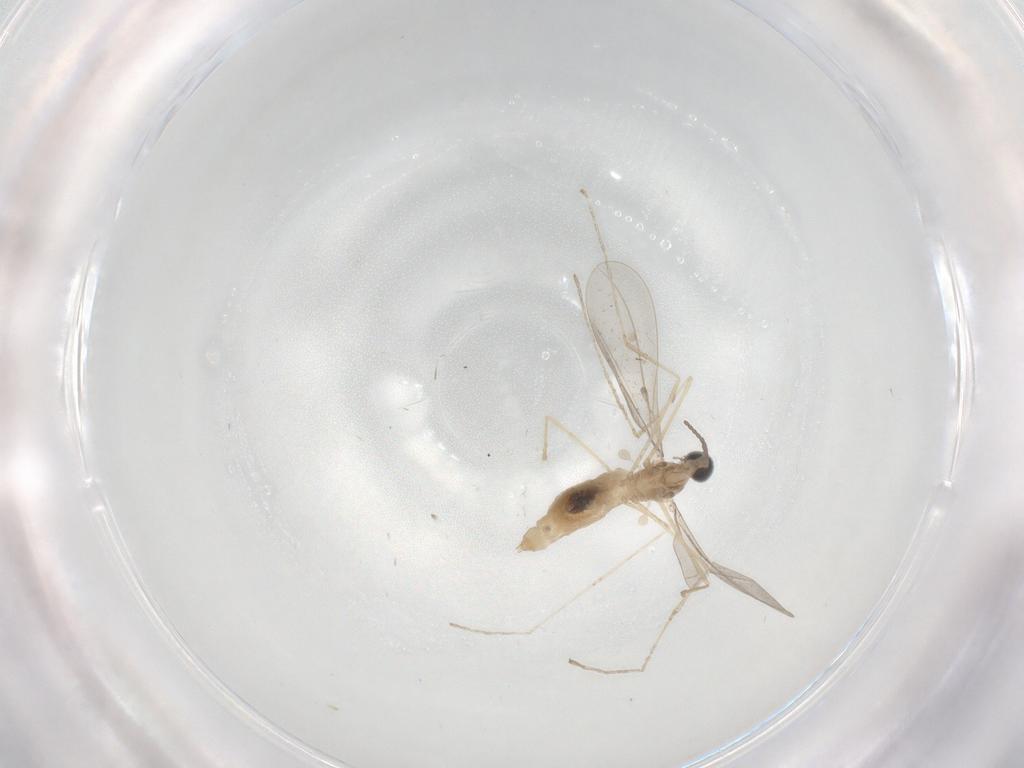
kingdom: Animalia
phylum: Arthropoda
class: Insecta
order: Diptera
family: Cecidomyiidae
